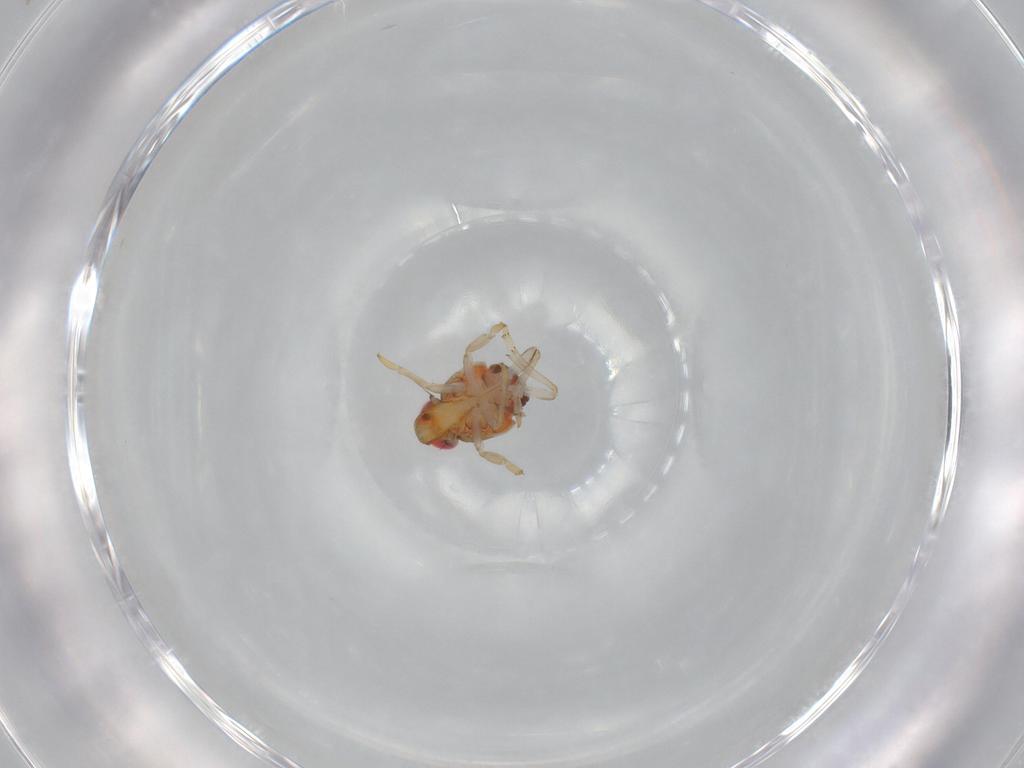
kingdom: Animalia
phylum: Arthropoda
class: Insecta
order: Hemiptera
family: Issidae
